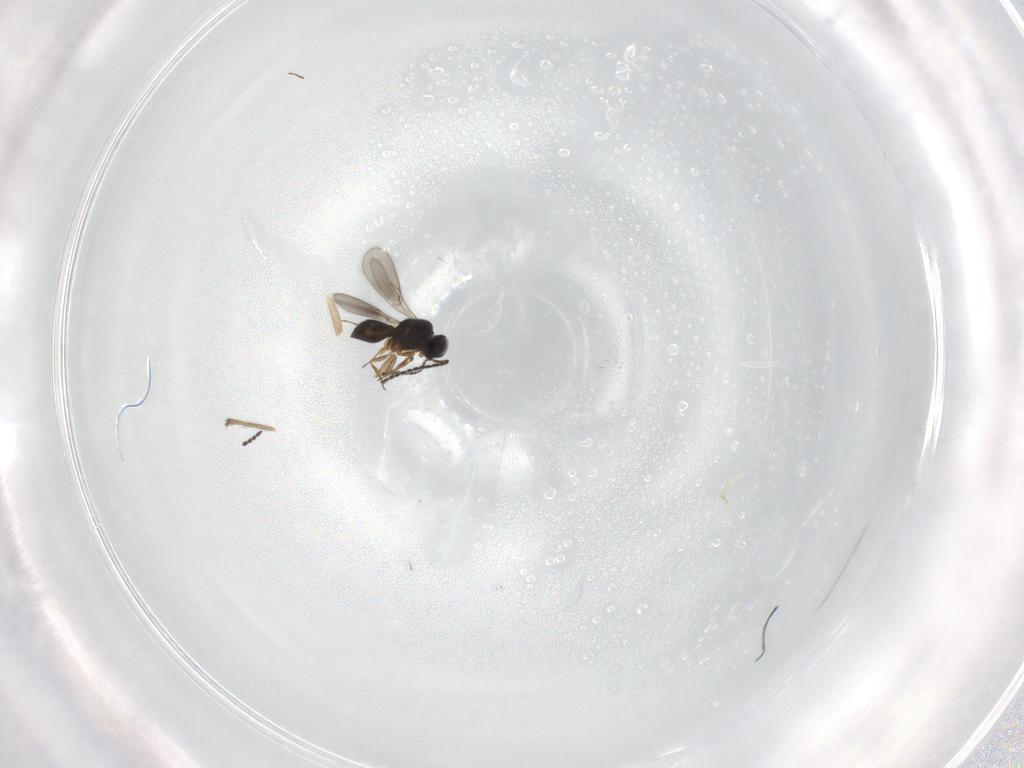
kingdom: Animalia
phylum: Arthropoda
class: Insecta
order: Hymenoptera
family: Scelionidae
